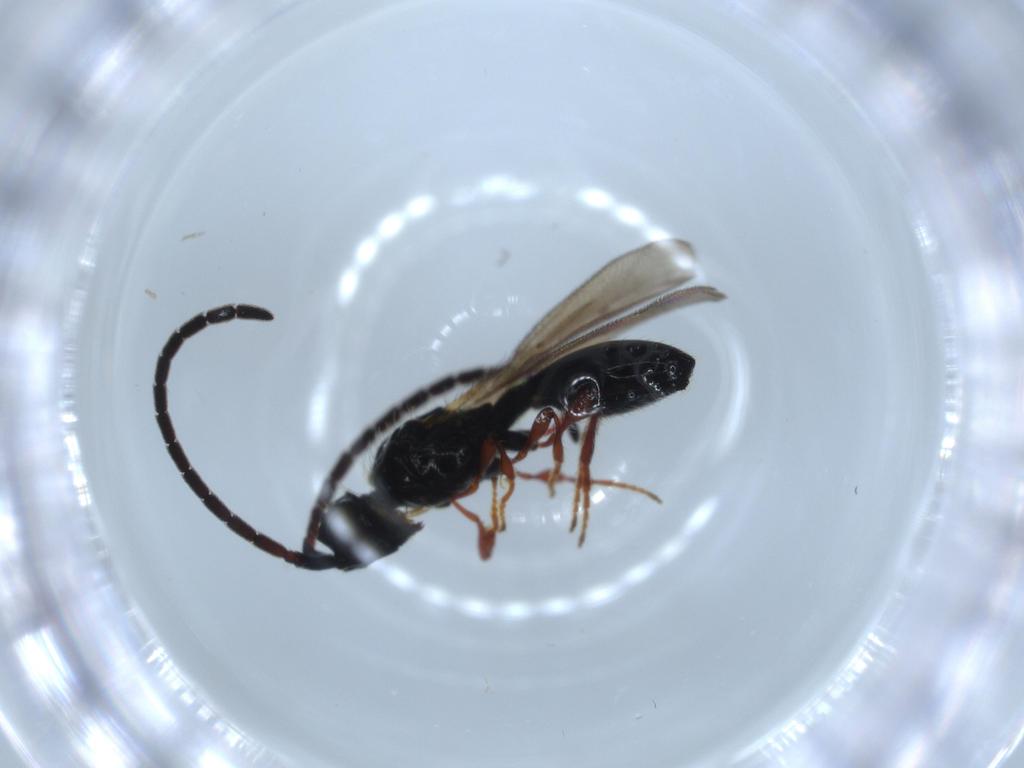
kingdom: Animalia
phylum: Arthropoda
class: Insecta
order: Hymenoptera
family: Diapriidae
